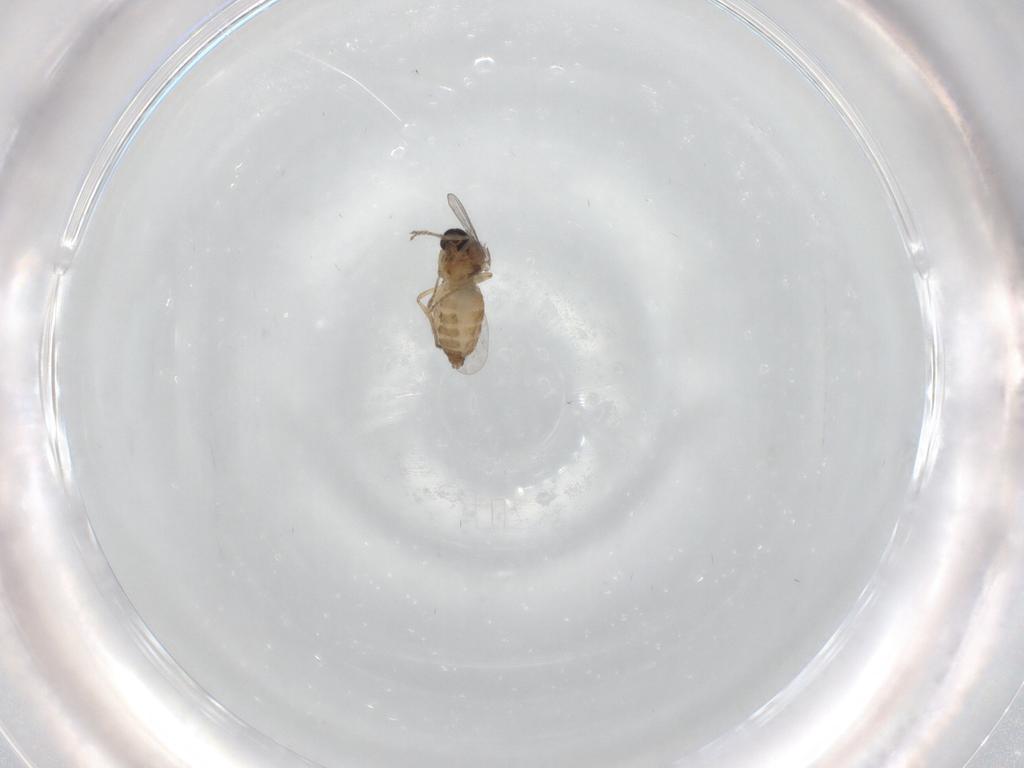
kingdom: Animalia
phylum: Arthropoda
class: Insecta
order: Diptera
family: Ceratopogonidae
